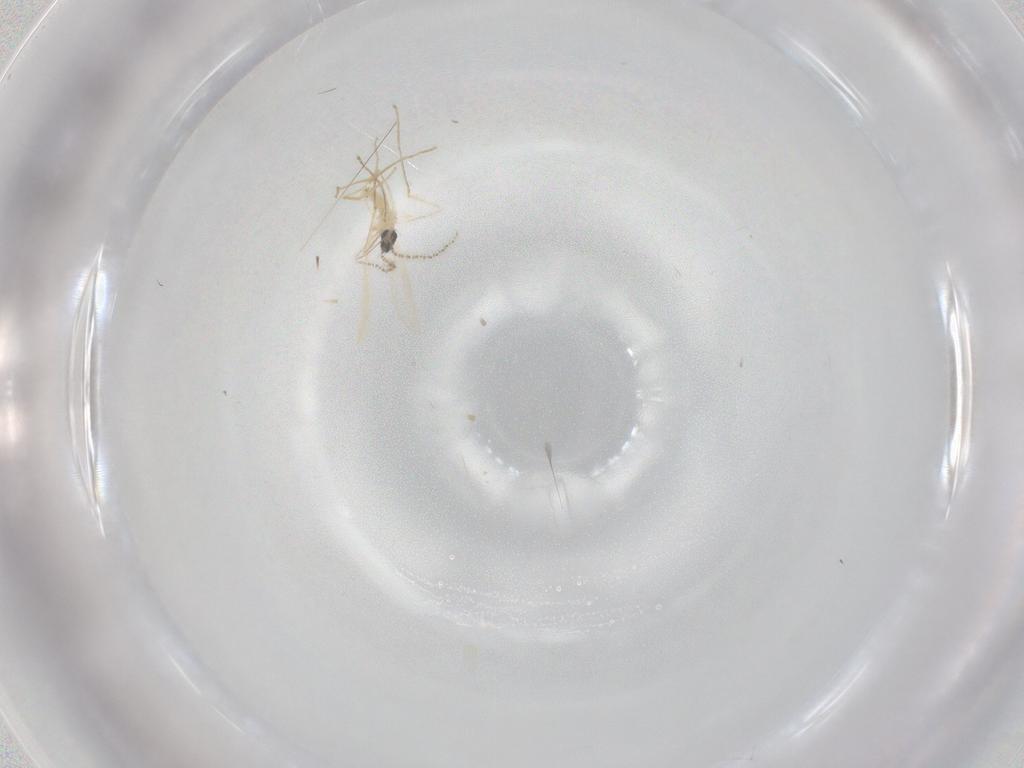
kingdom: Animalia
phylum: Arthropoda
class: Insecta
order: Diptera
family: Cecidomyiidae
